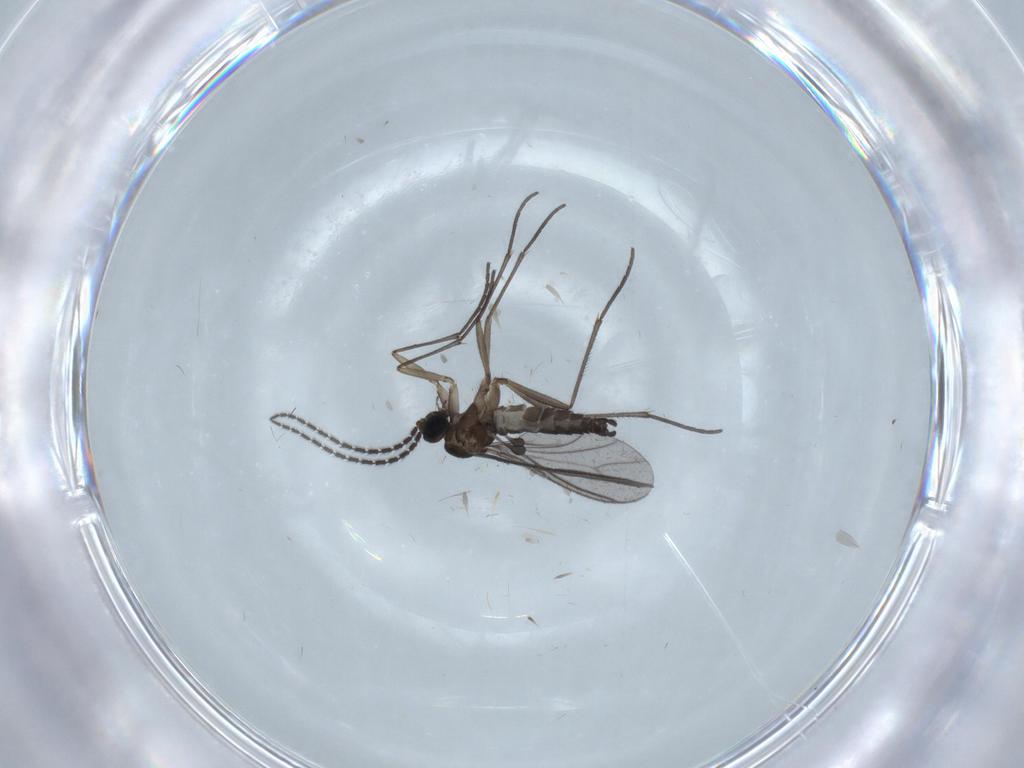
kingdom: Animalia
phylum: Arthropoda
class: Insecta
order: Diptera
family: Sciaridae
